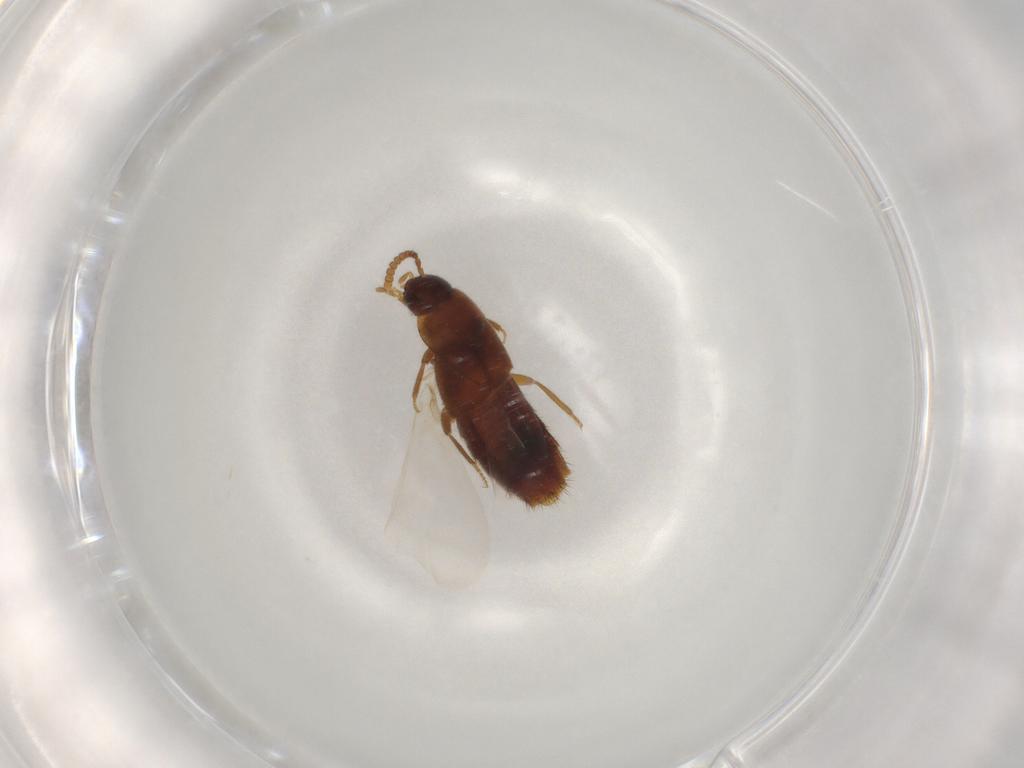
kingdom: Animalia
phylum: Arthropoda
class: Insecta
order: Coleoptera
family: Staphylinidae
